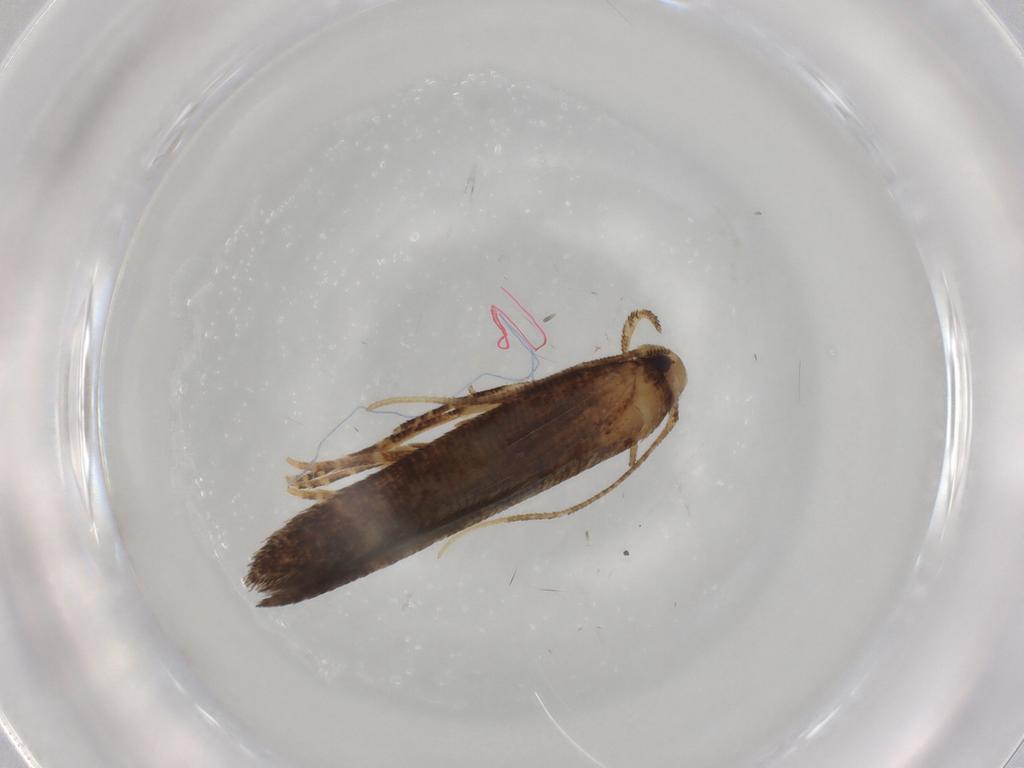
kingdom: Animalia
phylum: Arthropoda
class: Insecta
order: Lepidoptera
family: Cosmopterigidae
